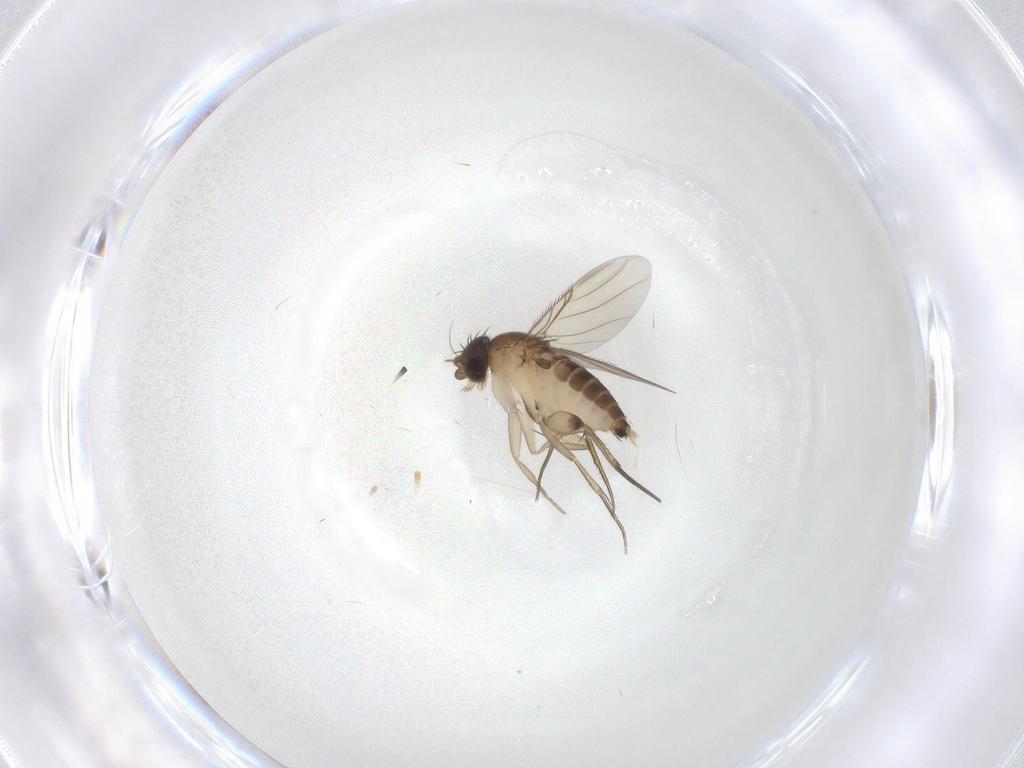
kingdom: Animalia
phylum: Arthropoda
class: Insecta
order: Diptera
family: Phoridae
